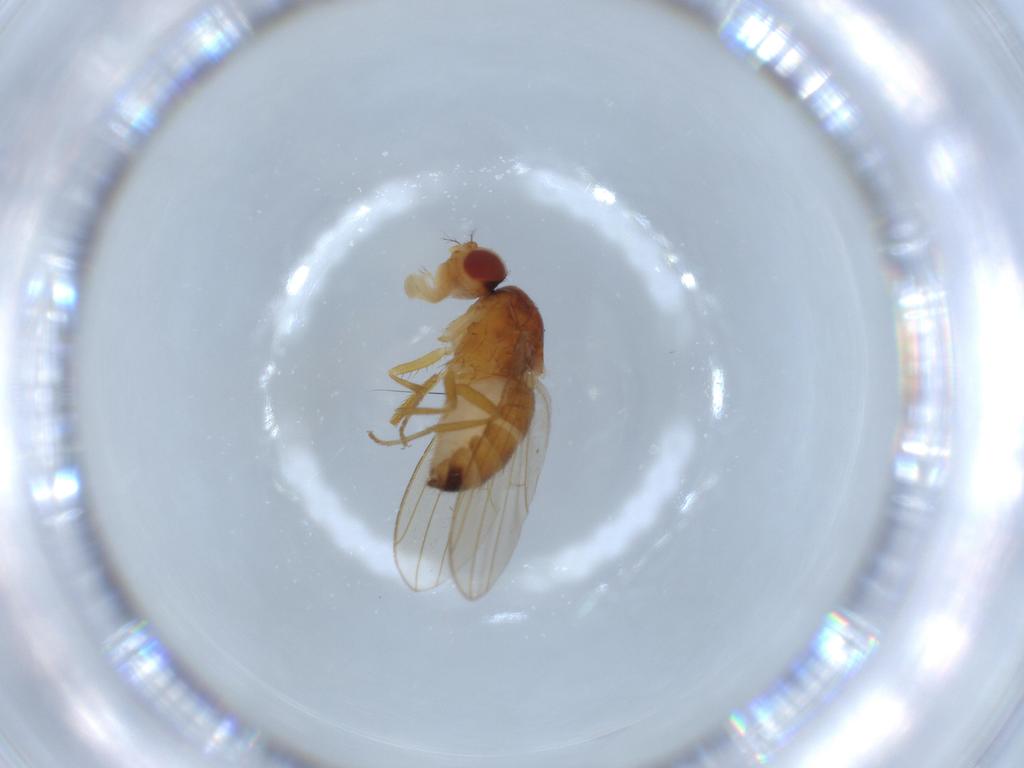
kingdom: Animalia
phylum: Arthropoda
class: Insecta
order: Diptera
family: Drosophilidae
